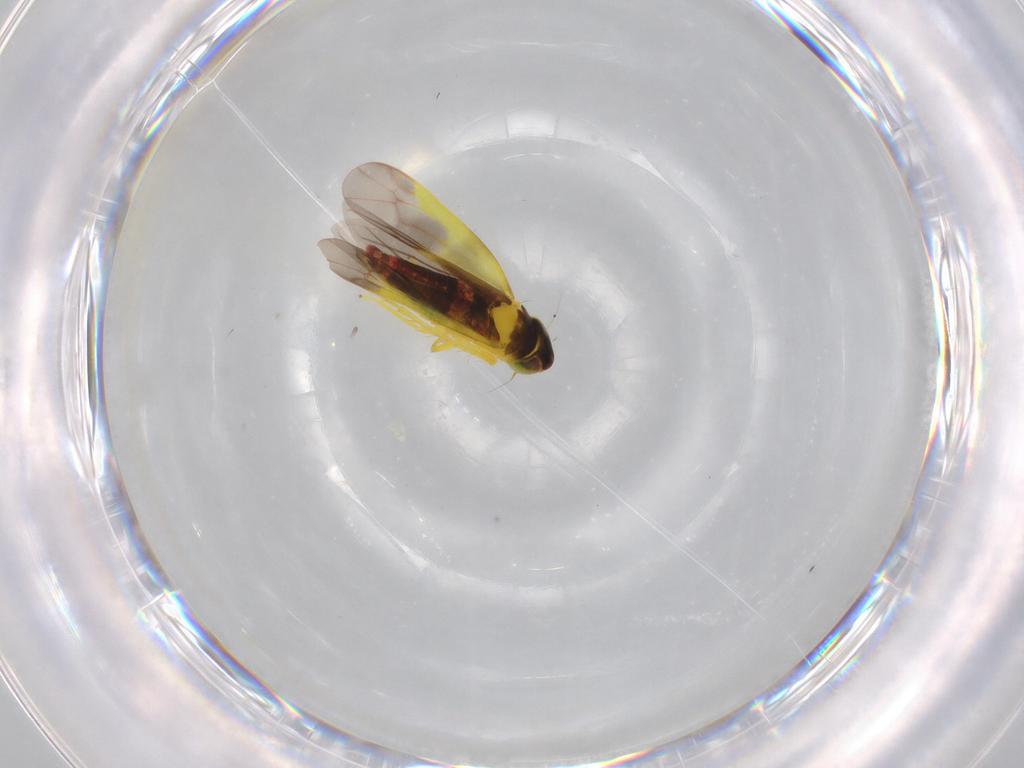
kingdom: Animalia
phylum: Arthropoda
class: Insecta
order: Hemiptera
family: Cicadellidae
